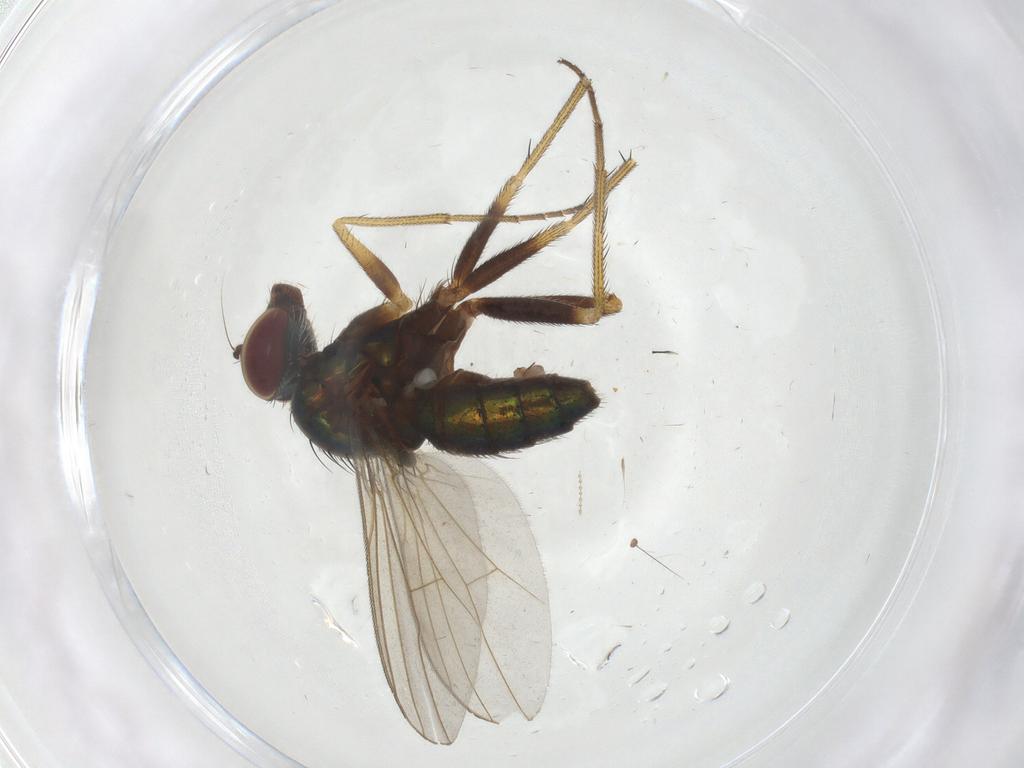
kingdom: Animalia
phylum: Arthropoda
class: Insecta
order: Diptera
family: Dolichopodidae
